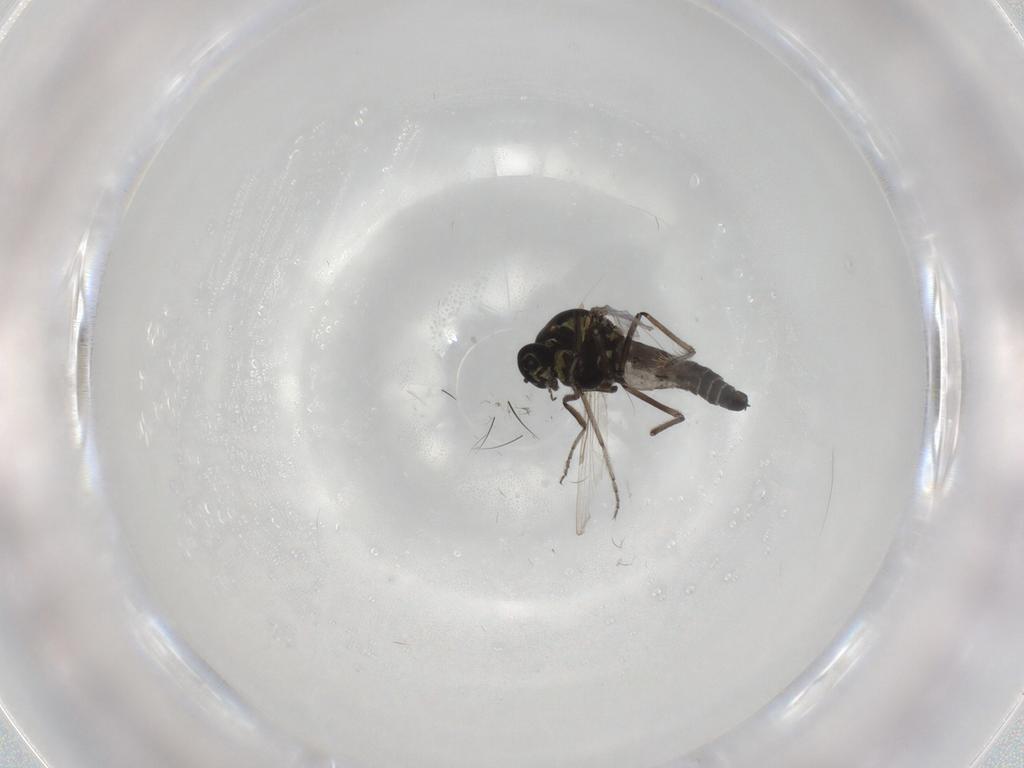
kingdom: Animalia
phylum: Arthropoda
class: Insecta
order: Diptera
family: Ceratopogonidae
